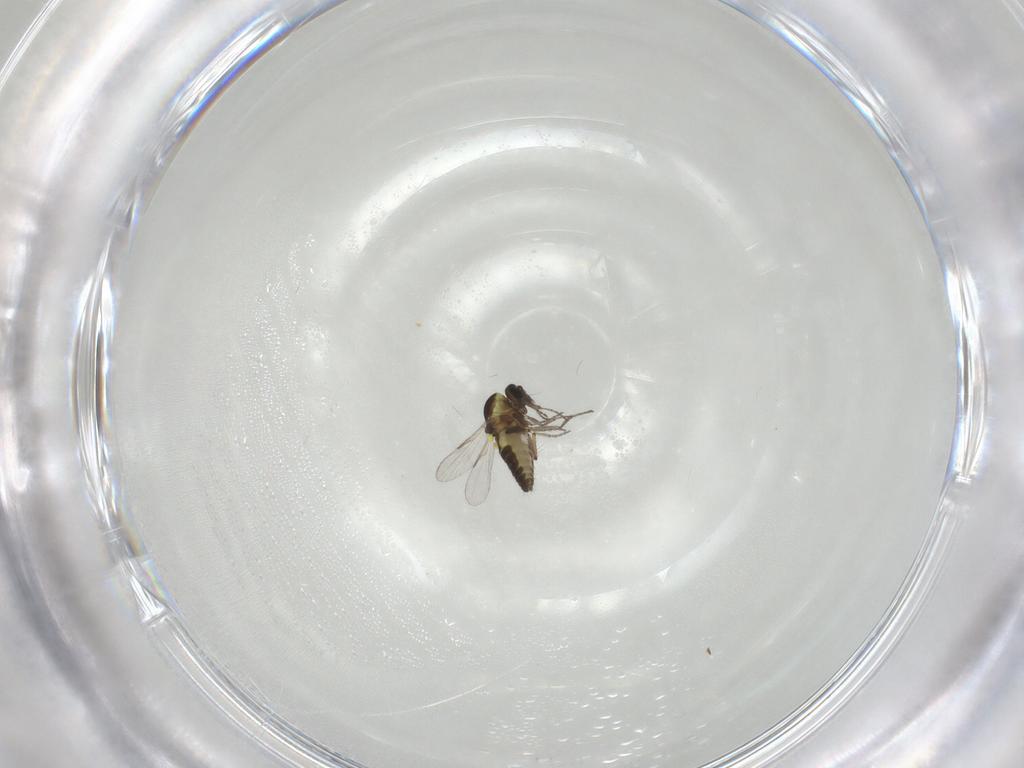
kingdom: Animalia
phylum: Arthropoda
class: Insecta
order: Diptera
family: Ceratopogonidae
